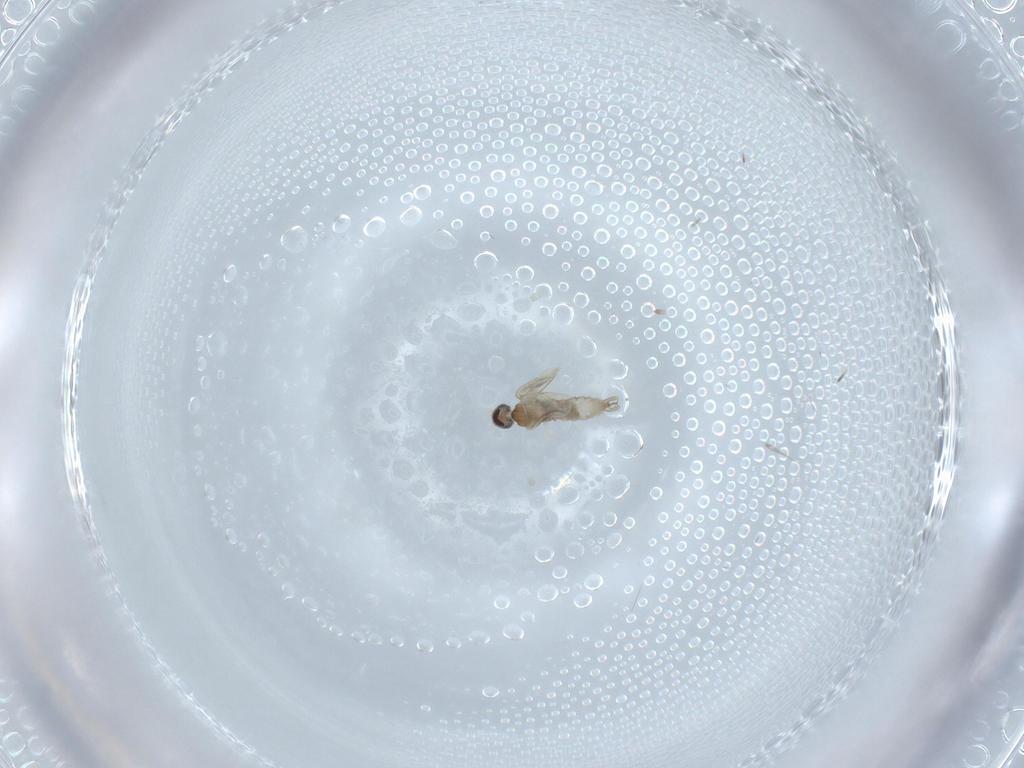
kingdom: Animalia
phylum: Arthropoda
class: Insecta
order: Diptera
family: Cecidomyiidae
